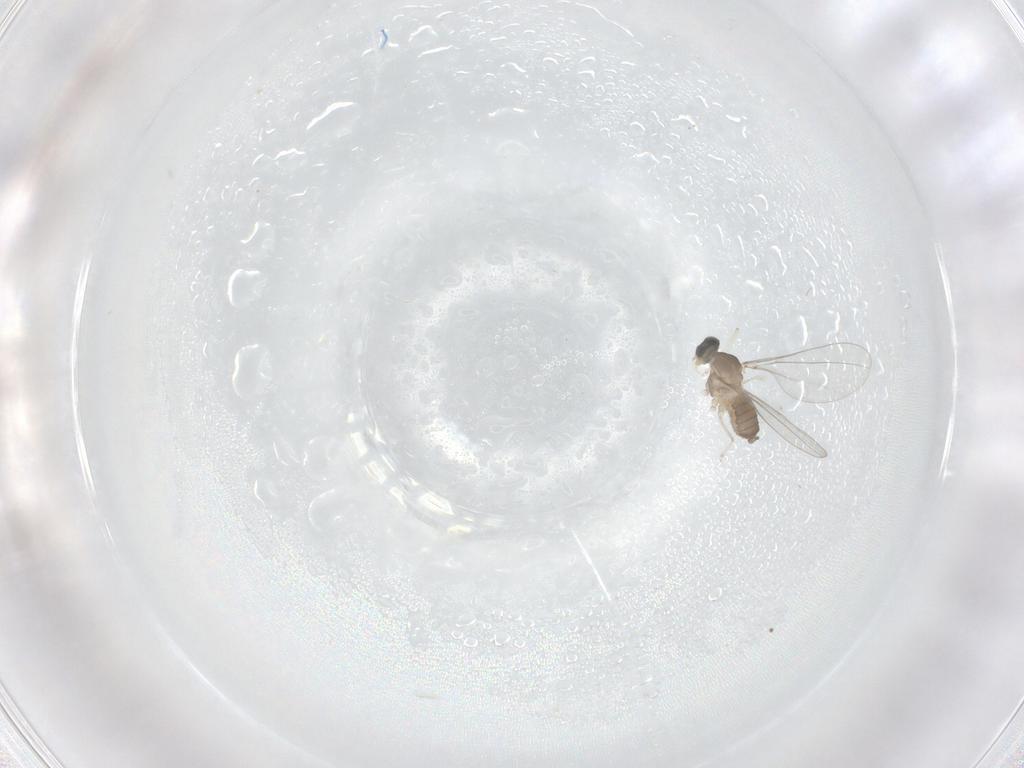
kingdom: Animalia
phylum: Arthropoda
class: Insecta
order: Diptera
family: Cecidomyiidae
